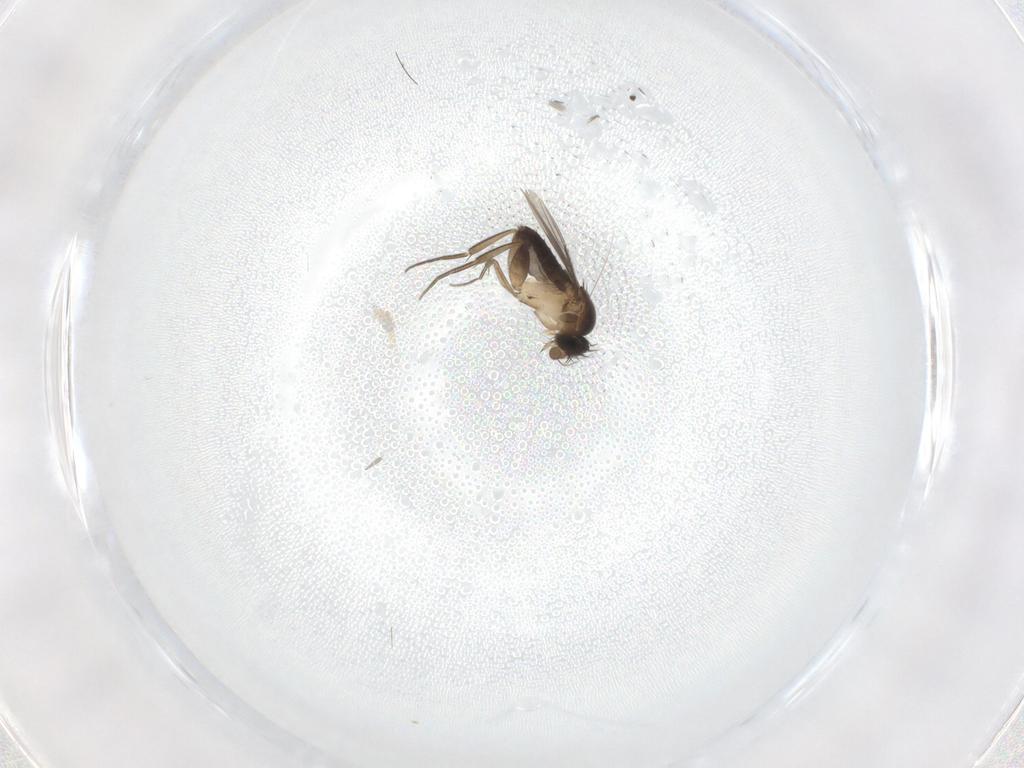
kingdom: Animalia
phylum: Arthropoda
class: Insecta
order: Diptera
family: Phoridae
